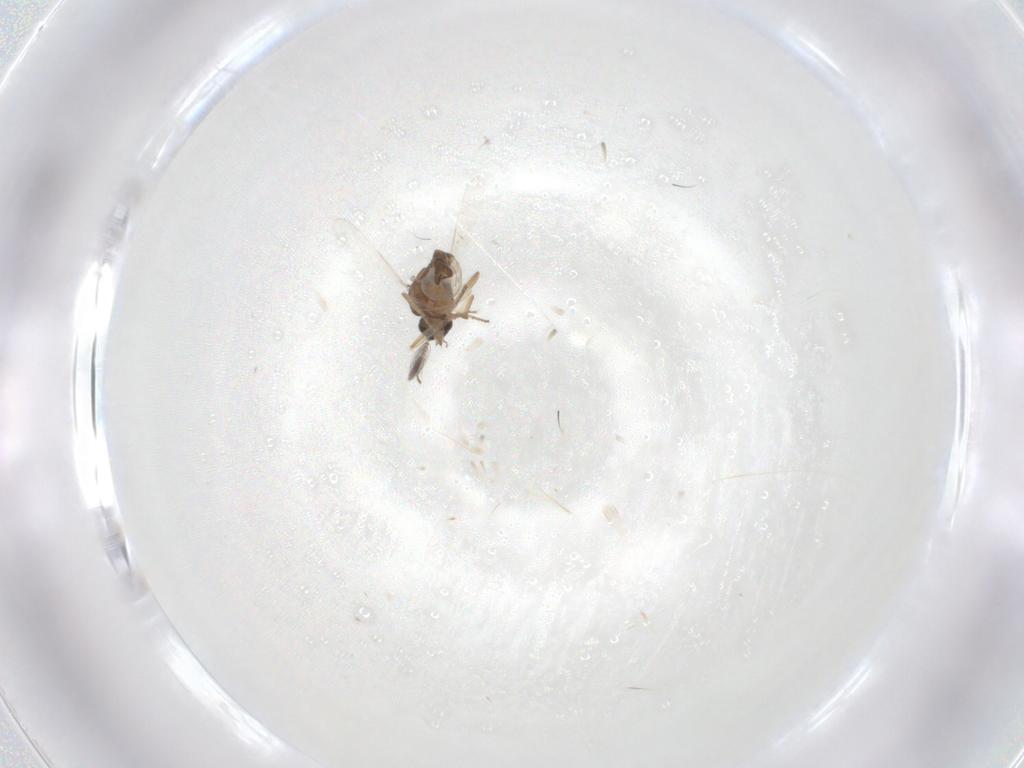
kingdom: Animalia
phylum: Arthropoda
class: Insecta
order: Diptera
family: Ceratopogonidae
